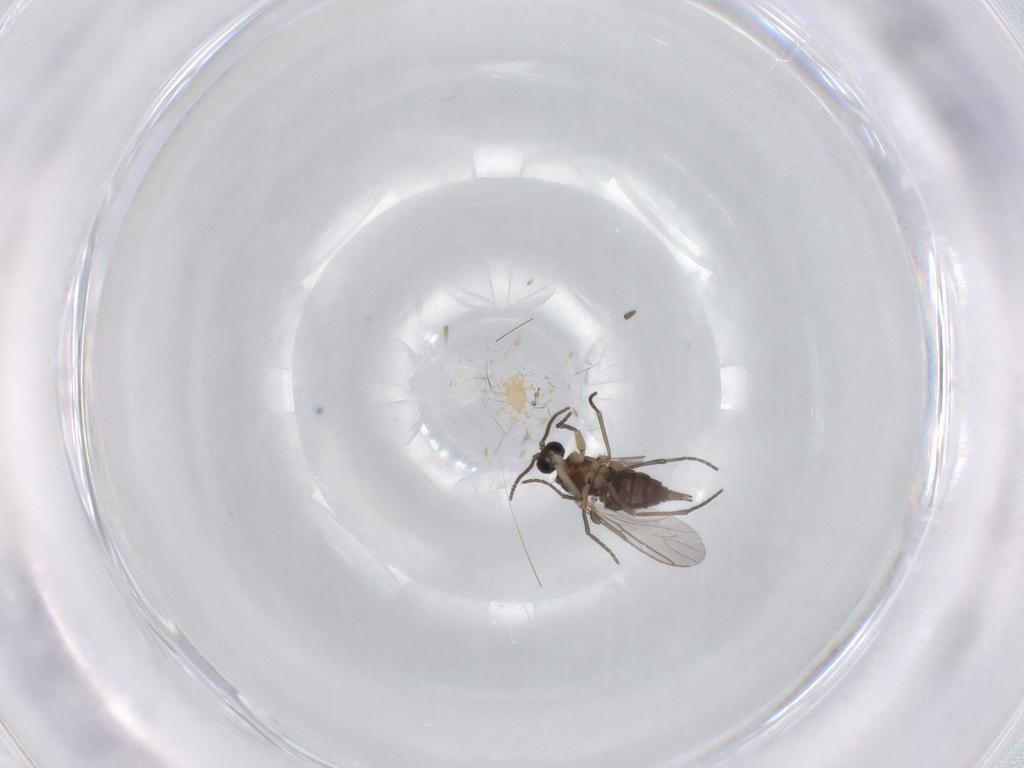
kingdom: Animalia
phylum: Arthropoda
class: Insecta
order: Diptera
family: Sciaridae
